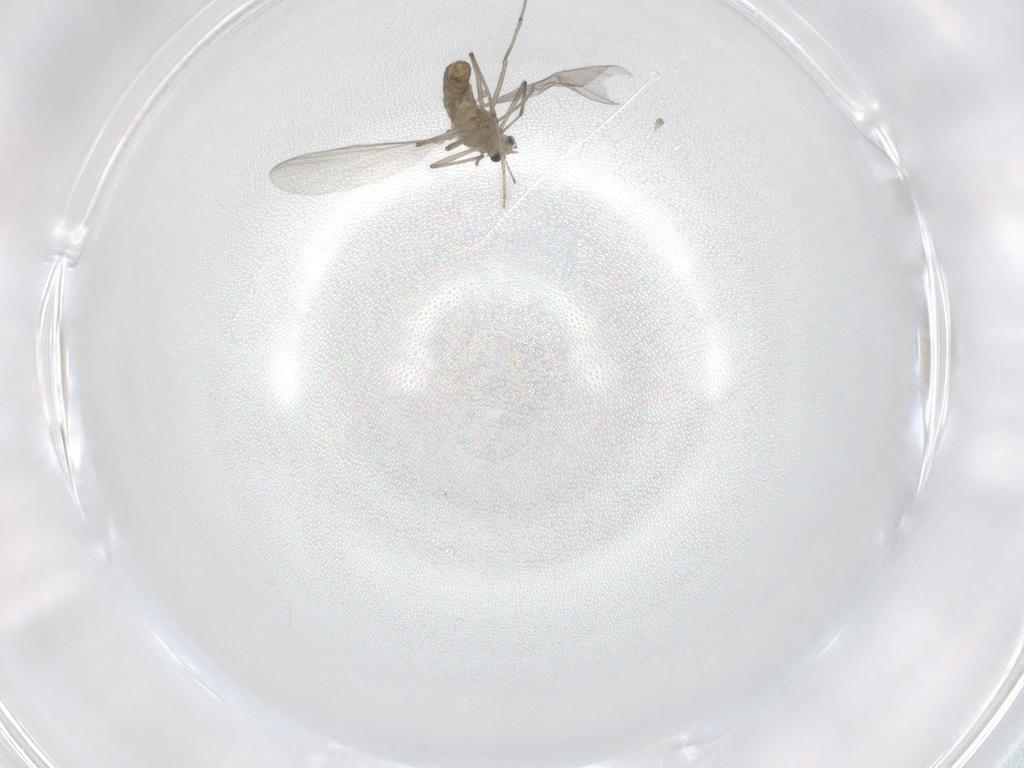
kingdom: Animalia
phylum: Arthropoda
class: Insecta
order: Diptera
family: Chironomidae
